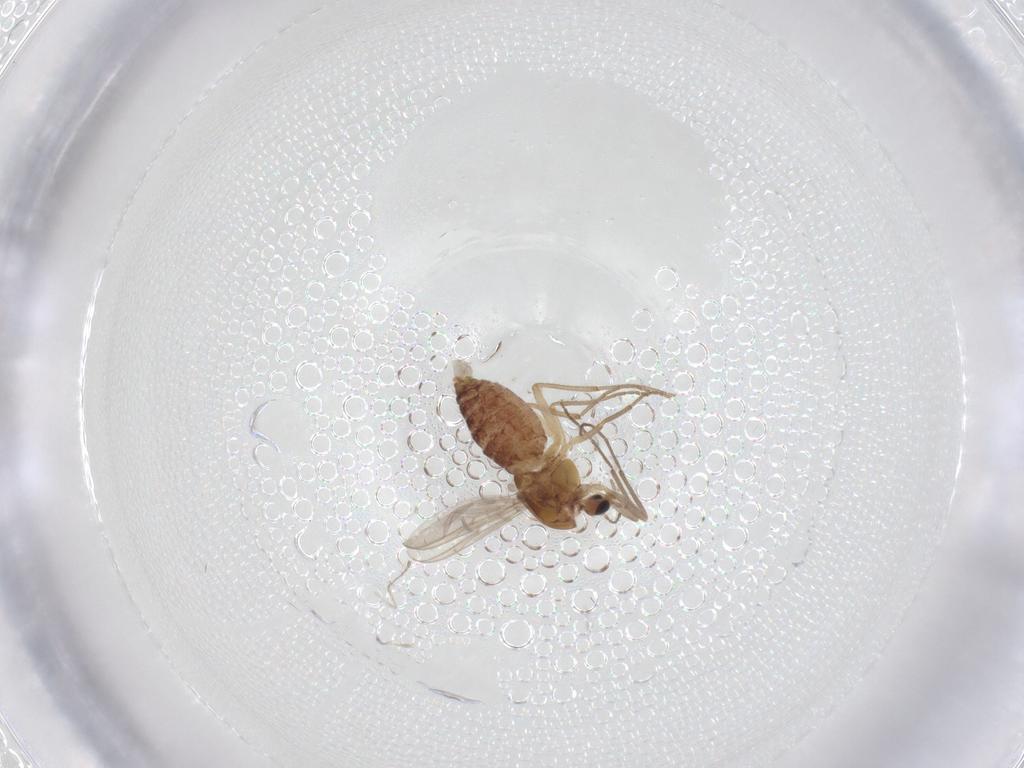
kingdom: Animalia
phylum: Arthropoda
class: Insecta
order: Diptera
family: Chironomidae
